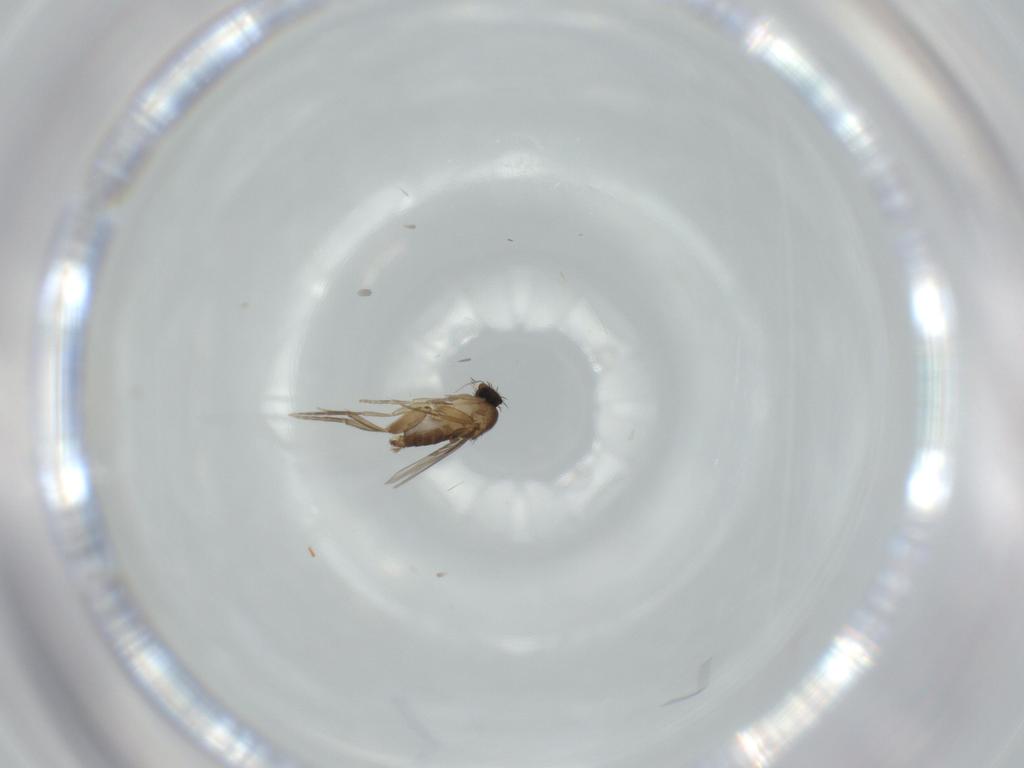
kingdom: Animalia
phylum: Arthropoda
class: Insecta
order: Diptera
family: Phoridae
